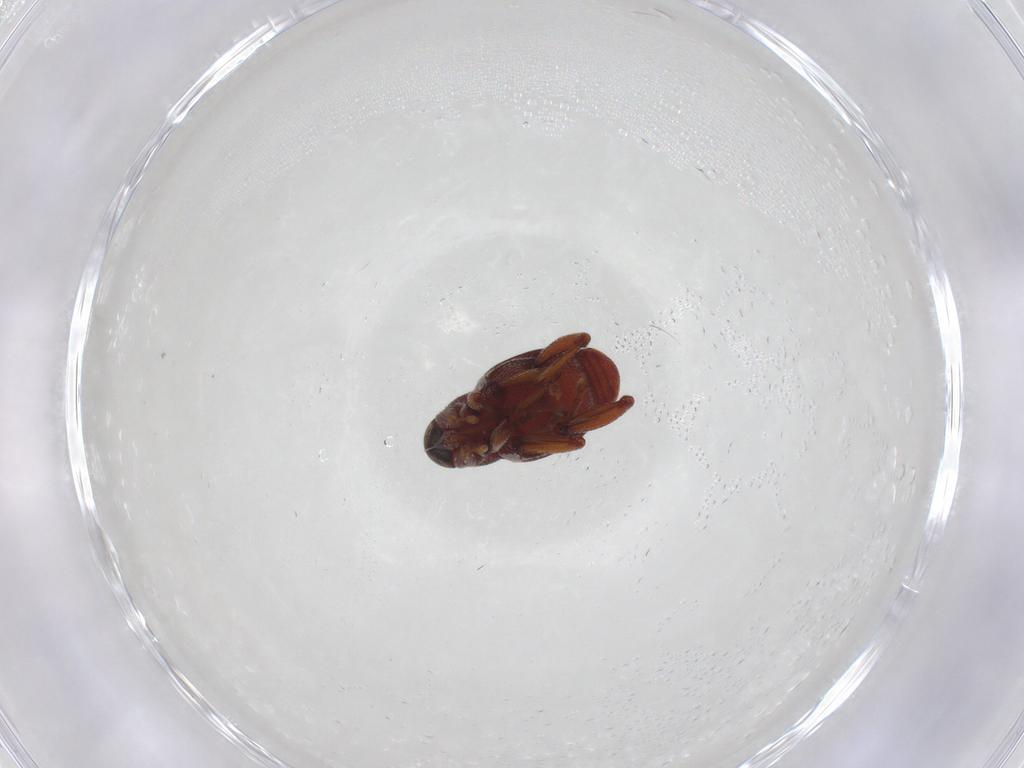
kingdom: Animalia
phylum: Arthropoda
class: Insecta
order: Coleoptera
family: Curculionidae
